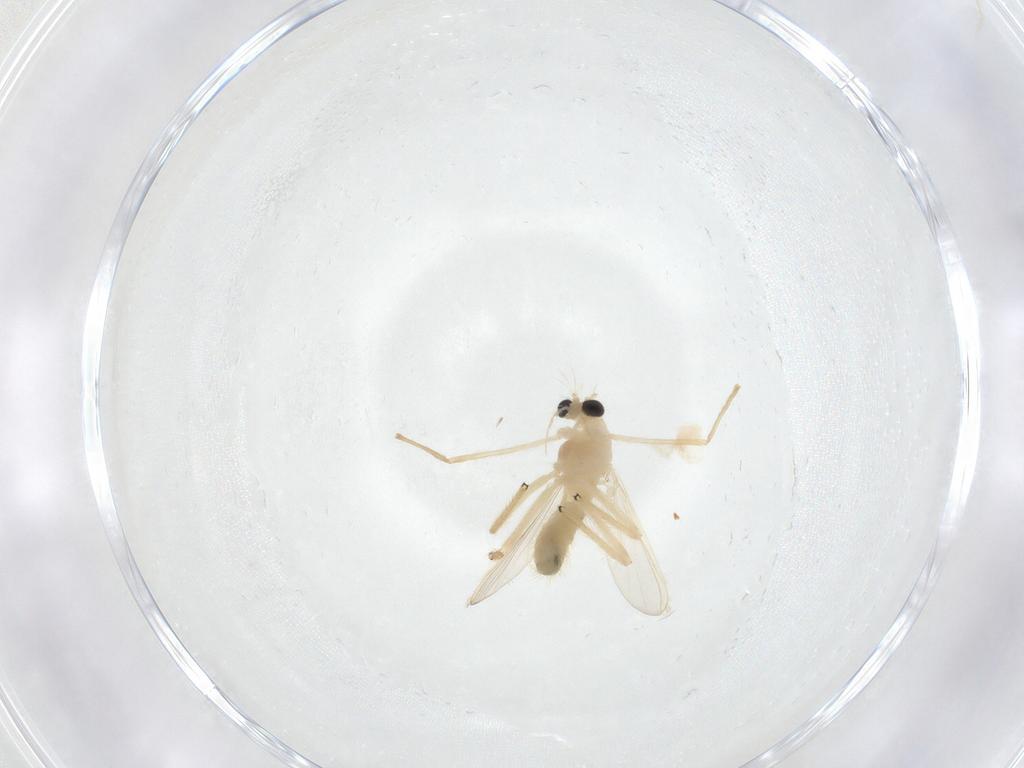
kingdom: Animalia
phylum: Arthropoda
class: Insecta
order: Diptera
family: Chironomidae
